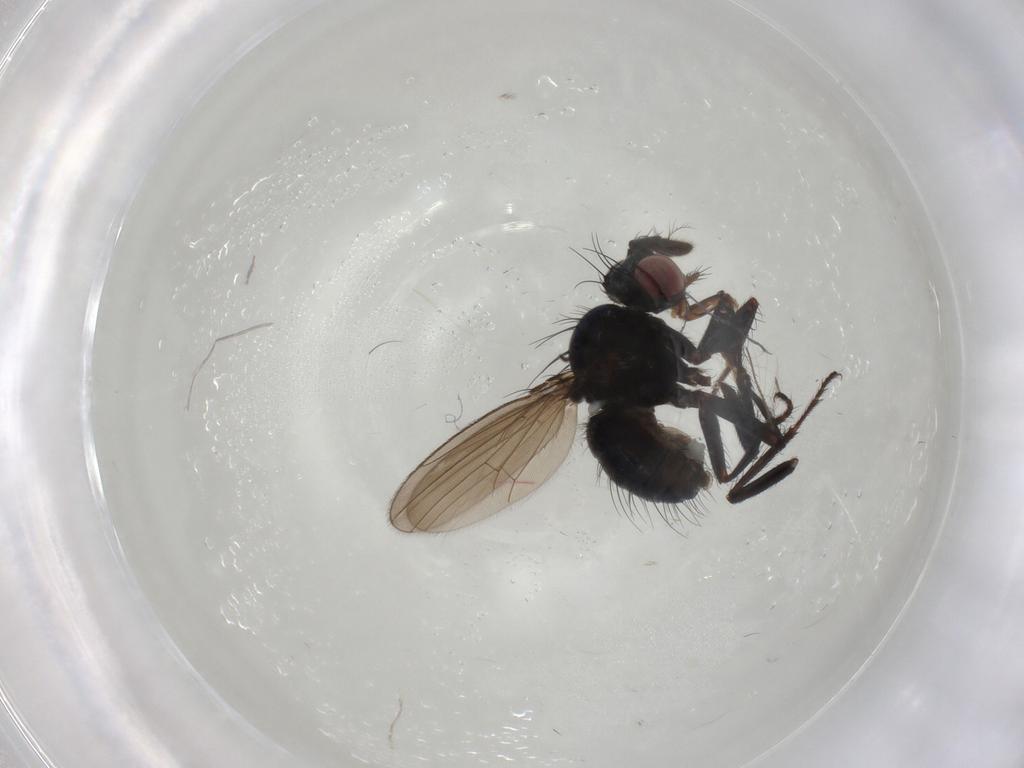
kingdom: Animalia
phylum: Arthropoda
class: Insecta
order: Diptera
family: Sciaridae
